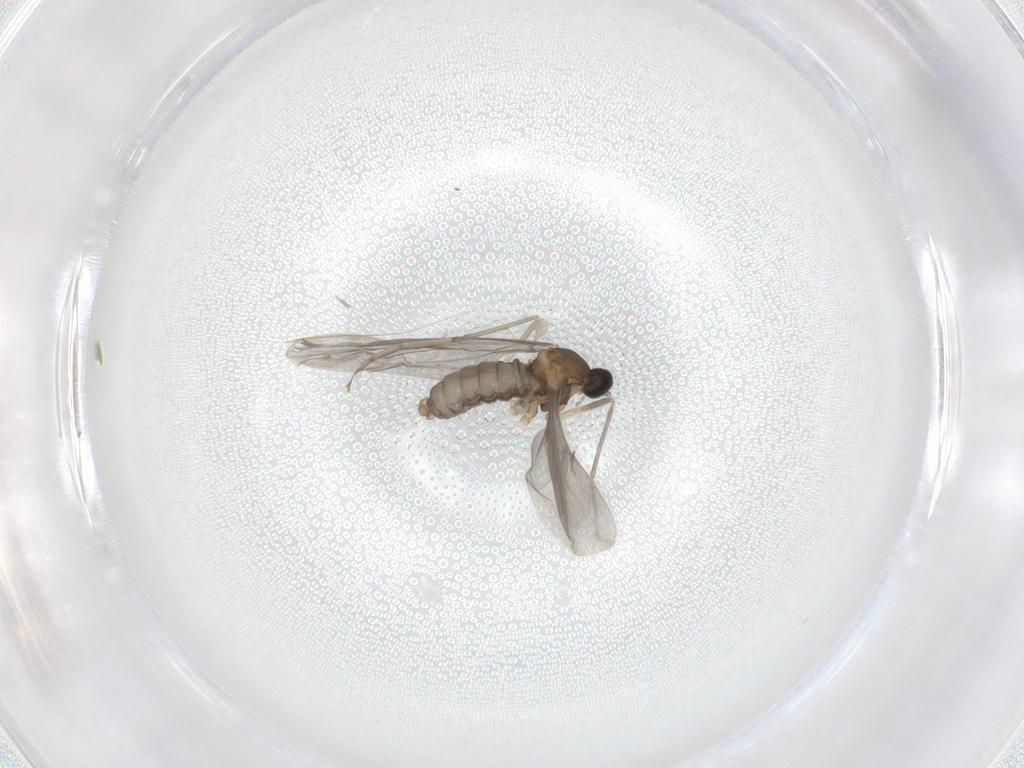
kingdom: Animalia
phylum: Arthropoda
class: Insecta
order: Diptera
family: Cecidomyiidae
